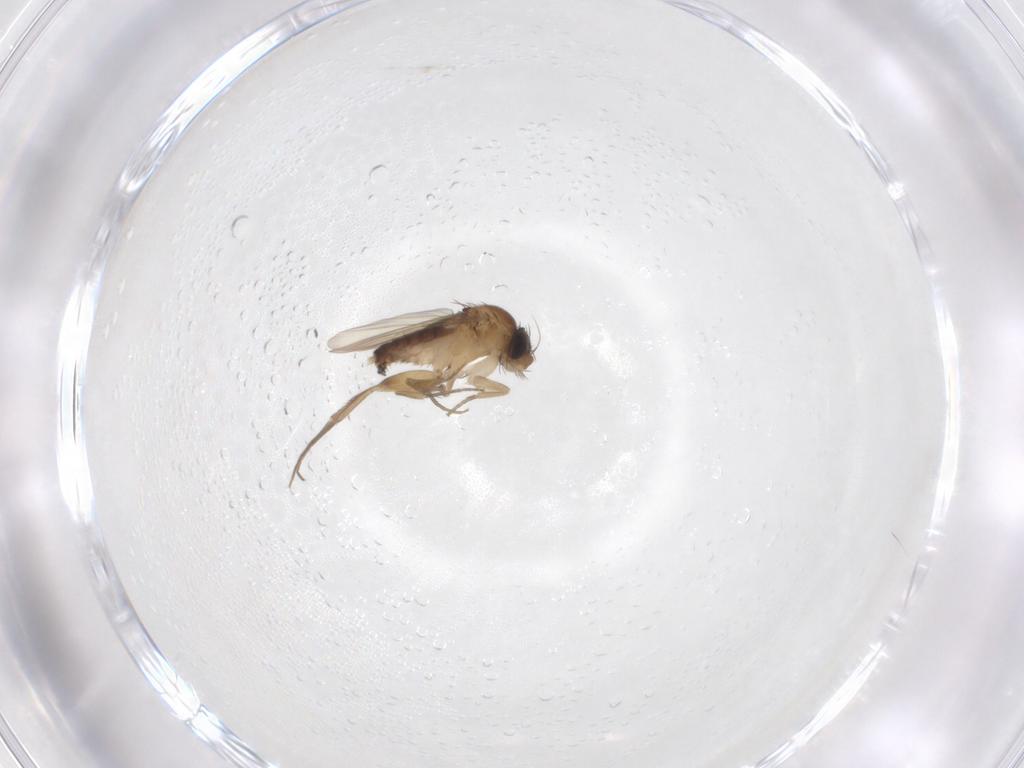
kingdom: Animalia
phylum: Arthropoda
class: Insecta
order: Diptera
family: Phoridae
